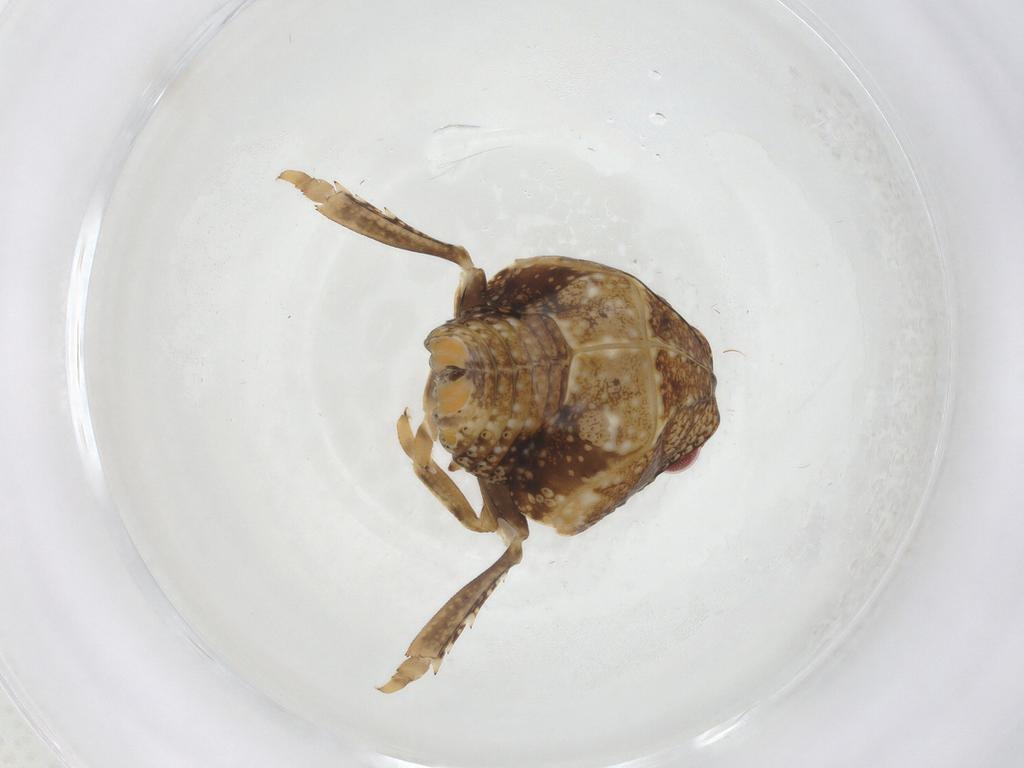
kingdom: Animalia
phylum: Arthropoda
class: Insecta
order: Hemiptera
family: Acanaloniidae
